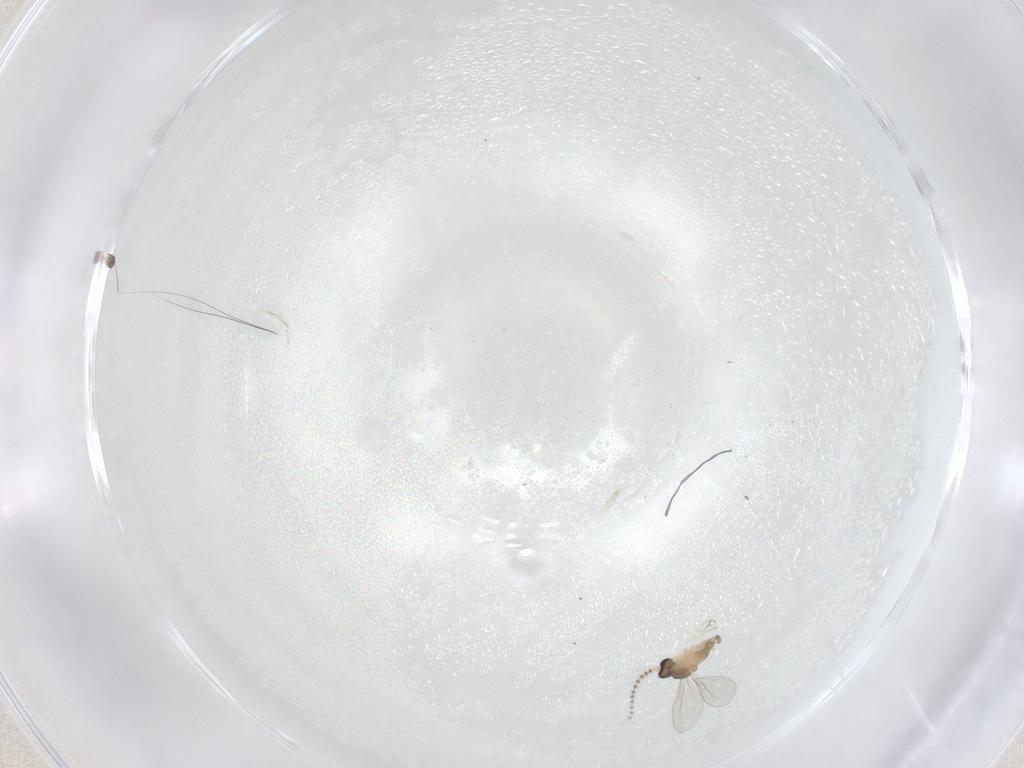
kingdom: Animalia
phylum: Arthropoda
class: Insecta
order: Diptera
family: Cecidomyiidae
